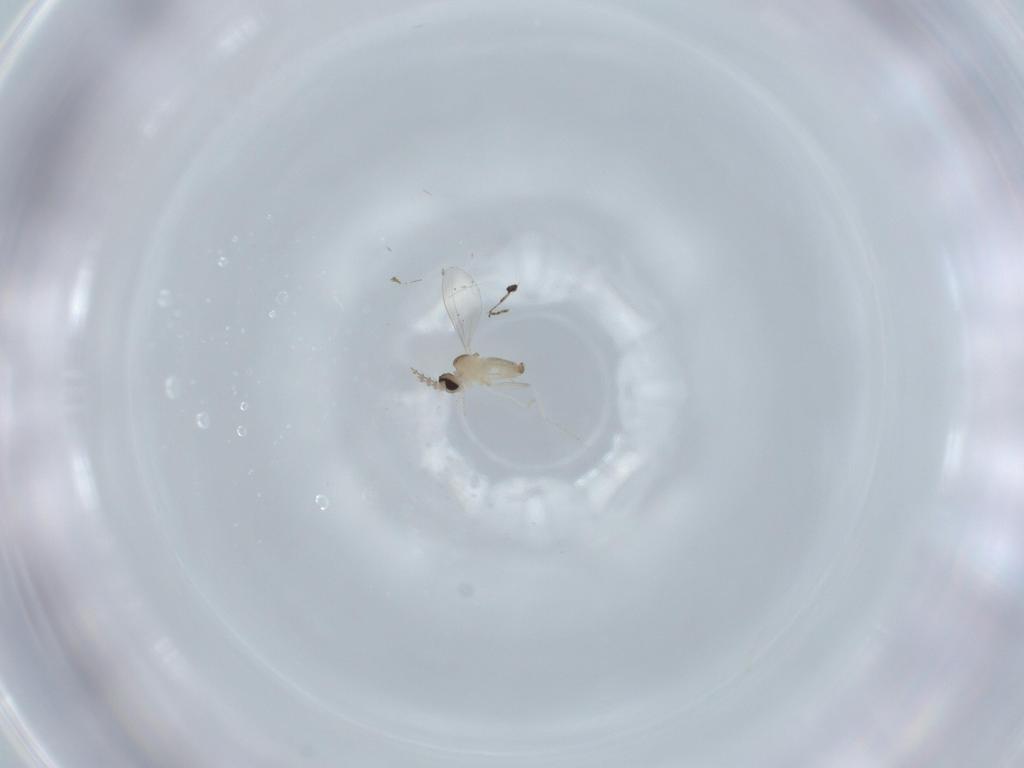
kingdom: Animalia
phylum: Arthropoda
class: Insecta
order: Diptera
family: Cecidomyiidae
